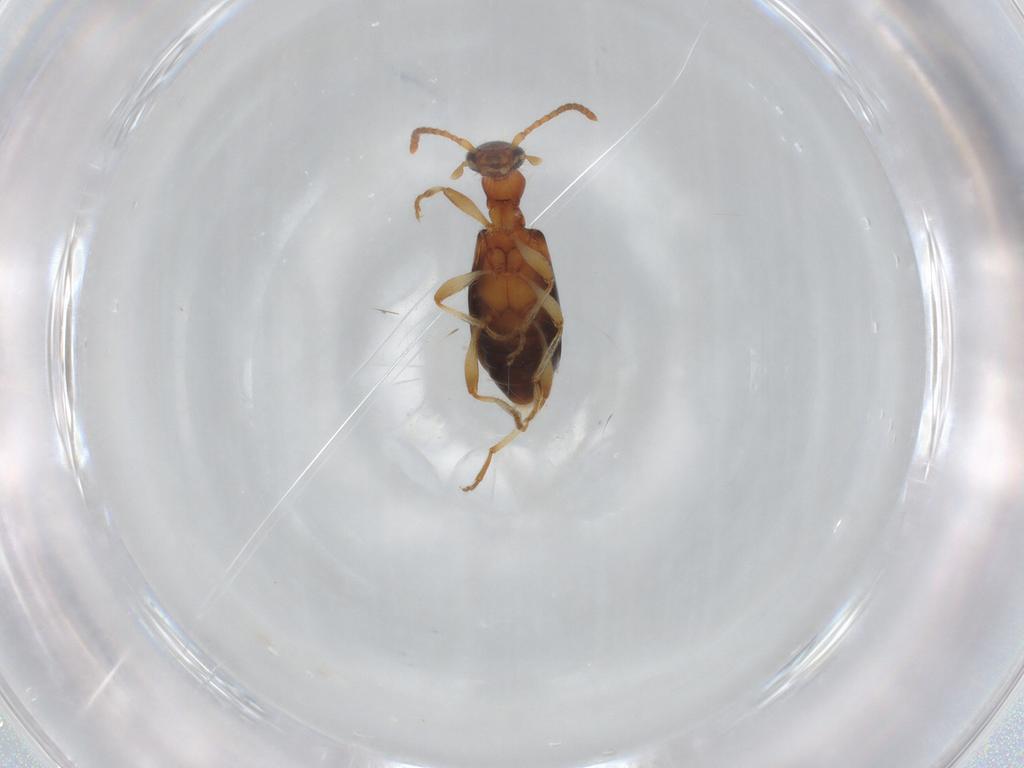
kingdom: Animalia
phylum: Arthropoda
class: Insecta
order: Coleoptera
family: Anthicidae
